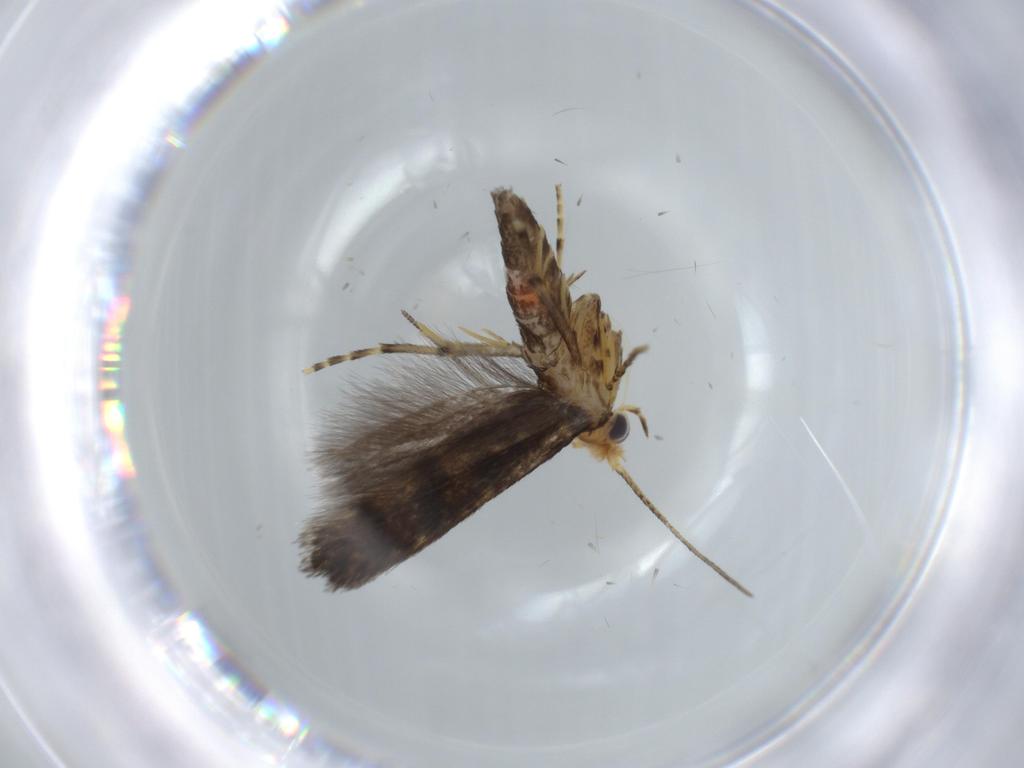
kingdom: Animalia
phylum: Arthropoda
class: Insecta
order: Lepidoptera
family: Argyresthiidae
